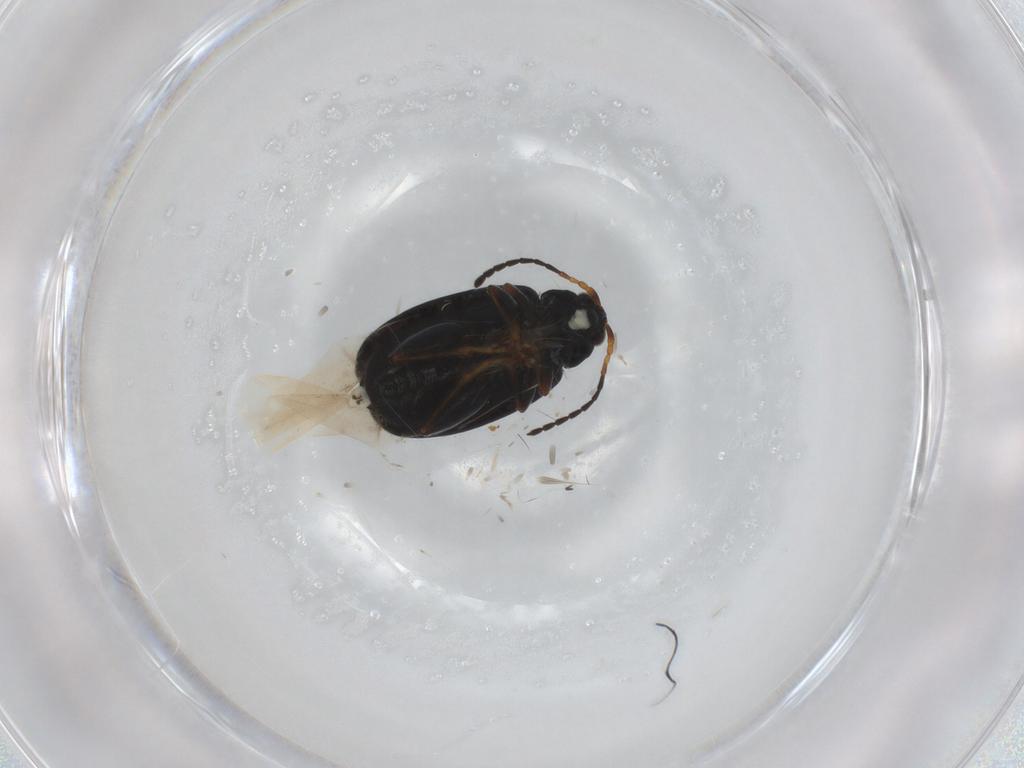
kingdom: Animalia
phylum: Arthropoda
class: Insecta
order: Coleoptera
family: Chrysomelidae
